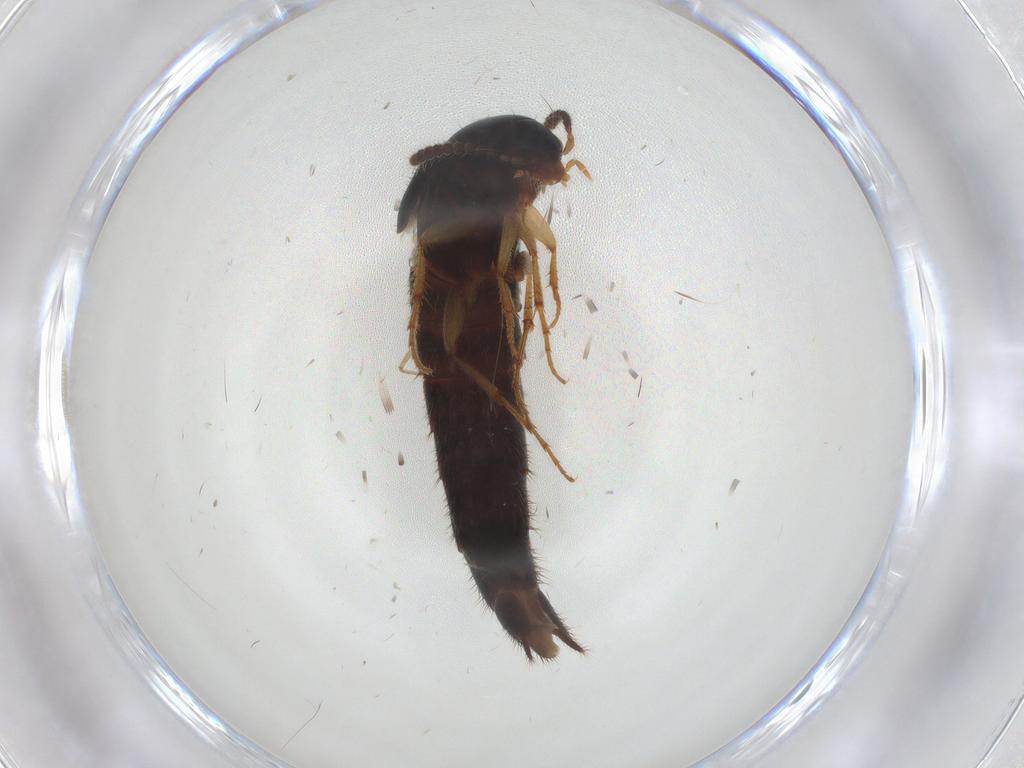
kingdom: Animalia
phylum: Arthropoda
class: Insecta
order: Coleoptera
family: Staphylinidae
